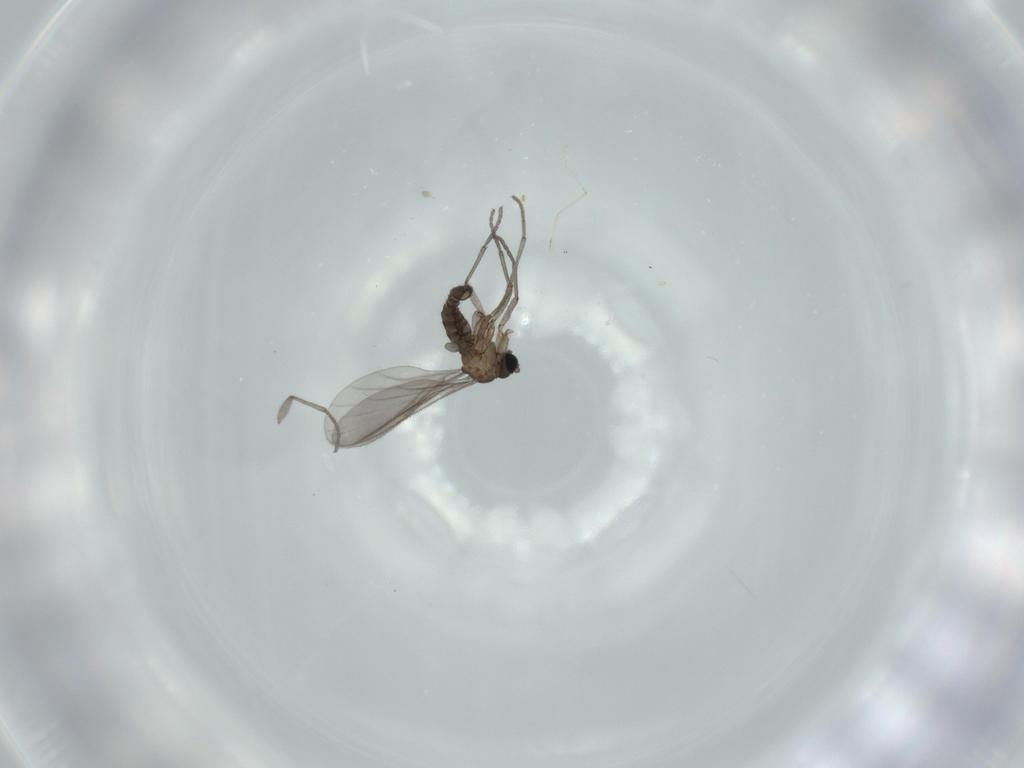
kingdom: Animalia
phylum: Arthropoda
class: Insecta
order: Diptera
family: Sciaridae
